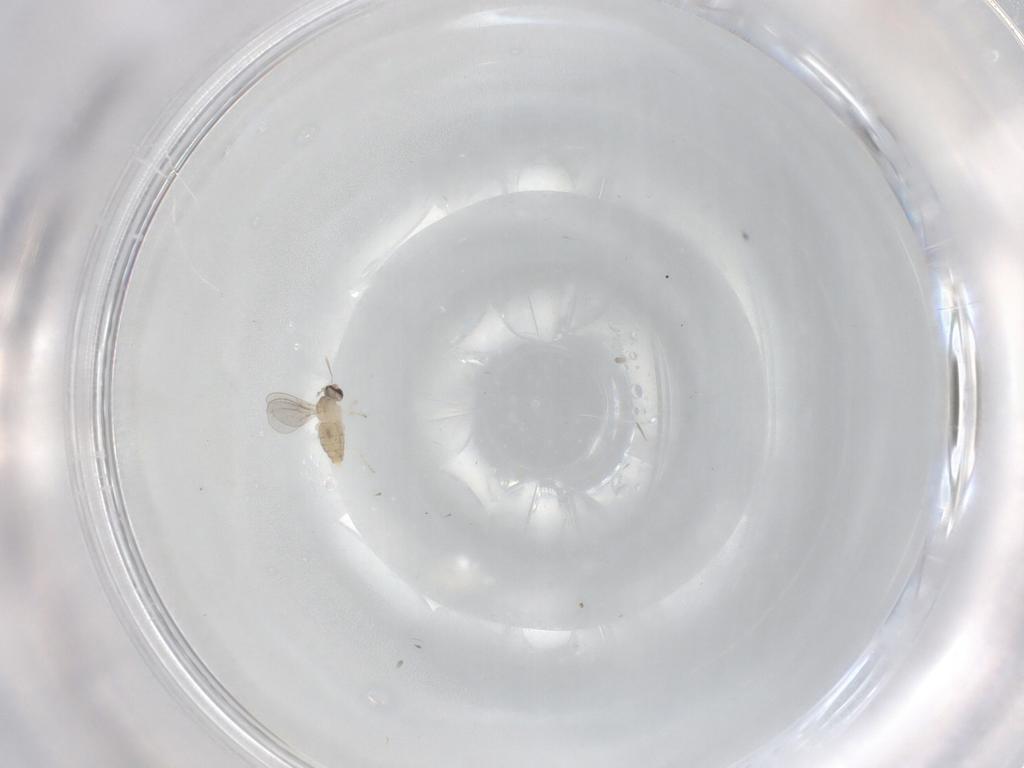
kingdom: Animalia
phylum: Arthropoda
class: Insecta
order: Diptera
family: Cecidomyiidae
